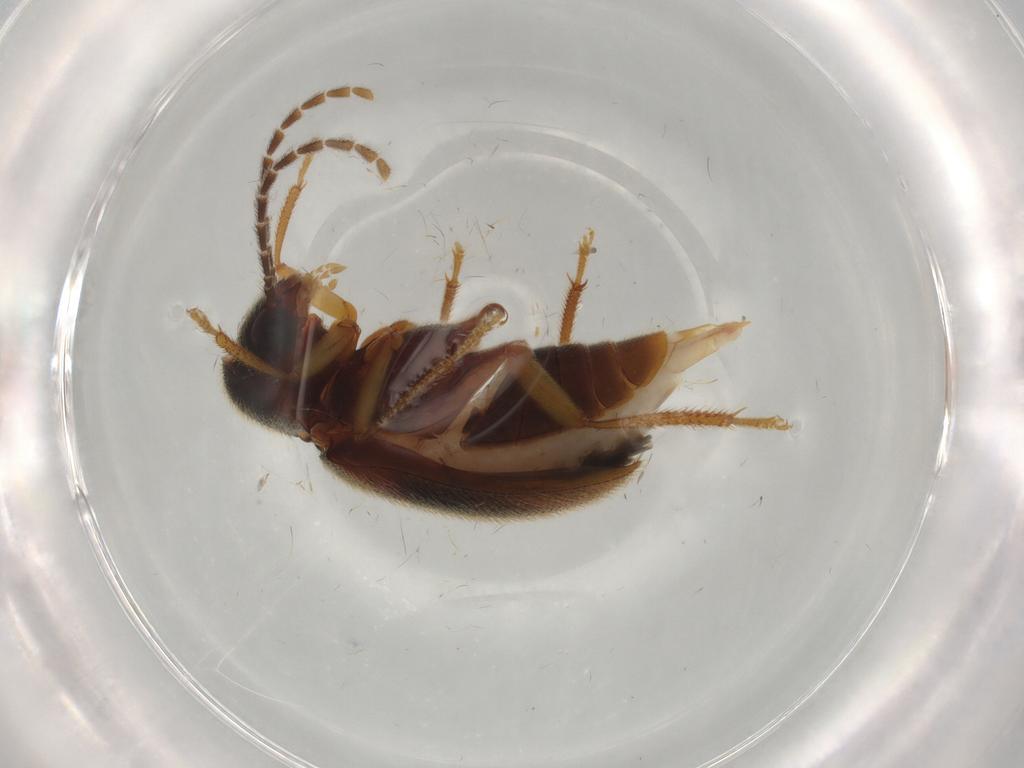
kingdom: Animalia
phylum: Arthropoda
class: Insecta
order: Coleoptera
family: Ptilodactylidae
